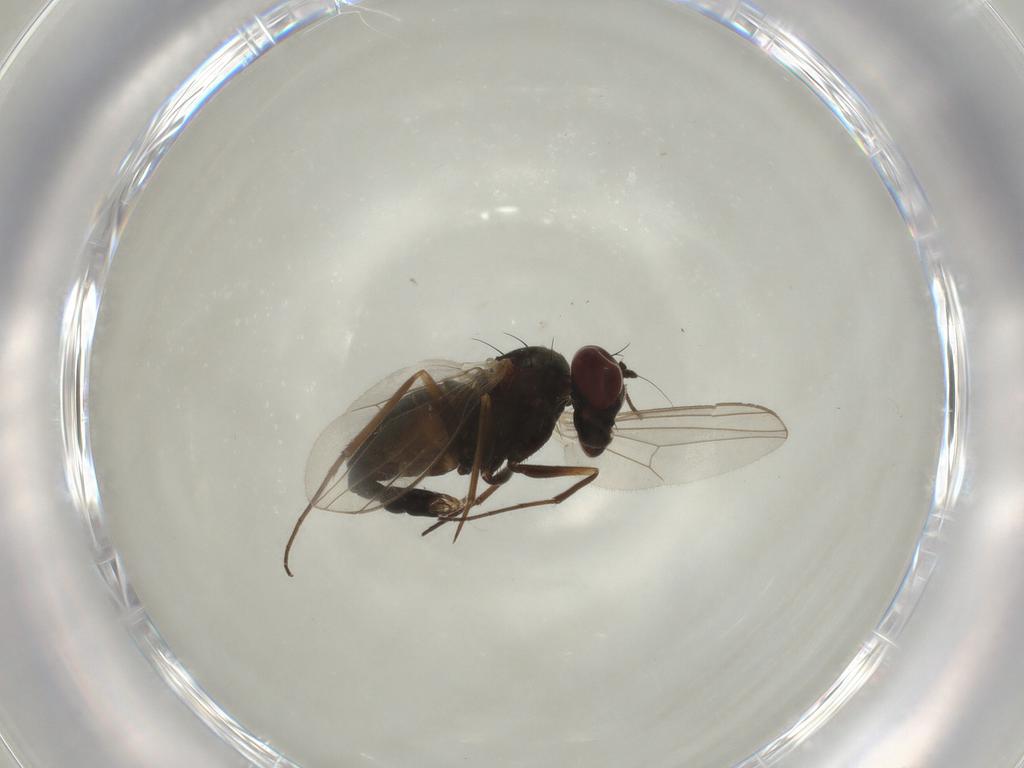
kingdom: Animalia
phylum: Arthropoda
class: Insecta
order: Diptera
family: Dolichopodidae
